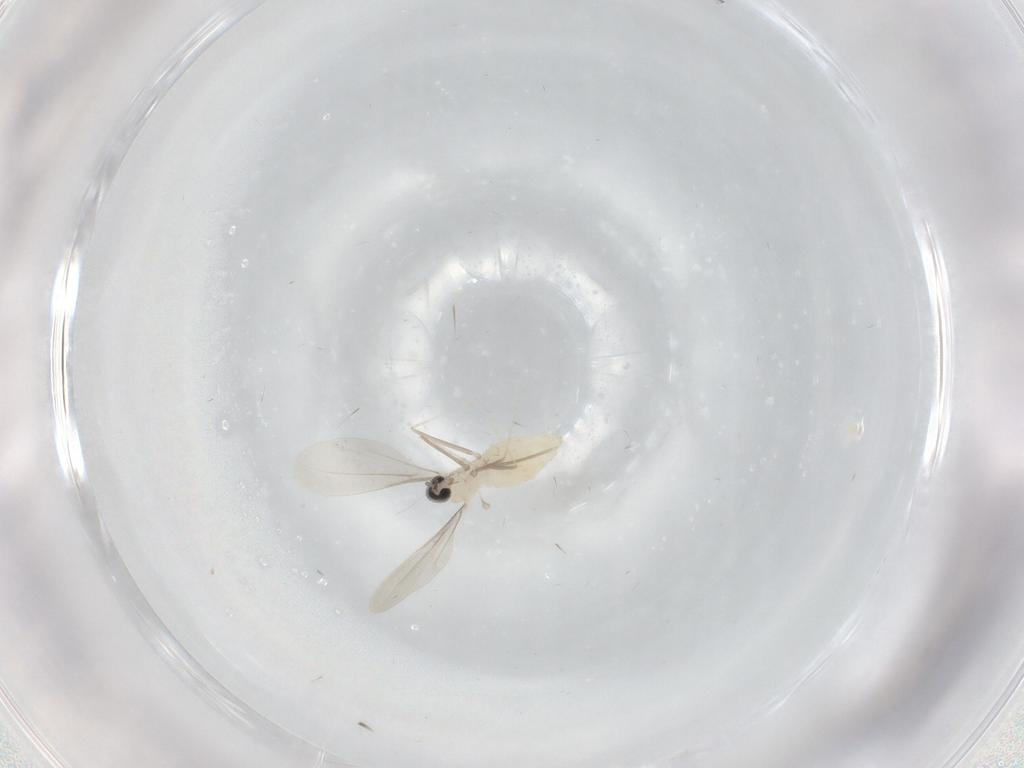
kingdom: Animalia
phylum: Arthropoda
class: Insecta
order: Diptera
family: Cecidomyiidae
